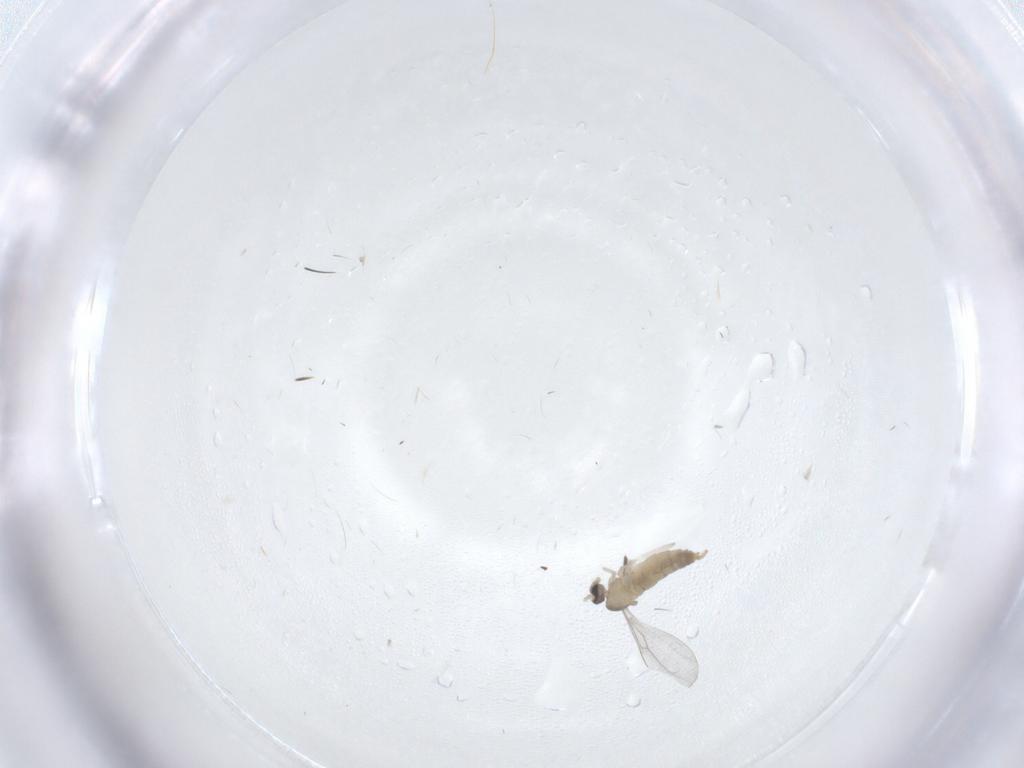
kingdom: Animalia
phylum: Arthropoda
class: Insecta
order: Diptera
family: Cecidomyiidae
